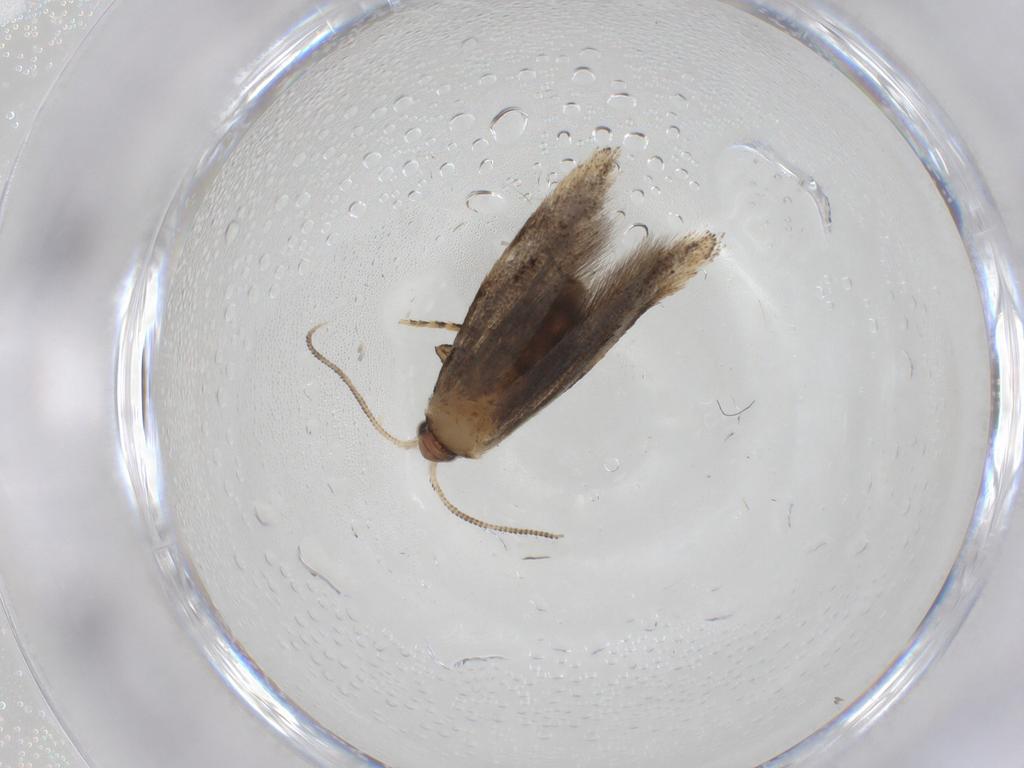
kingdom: Animalia
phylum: Arthropoda
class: Insecta
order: Lepidoptera
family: Tineidae
